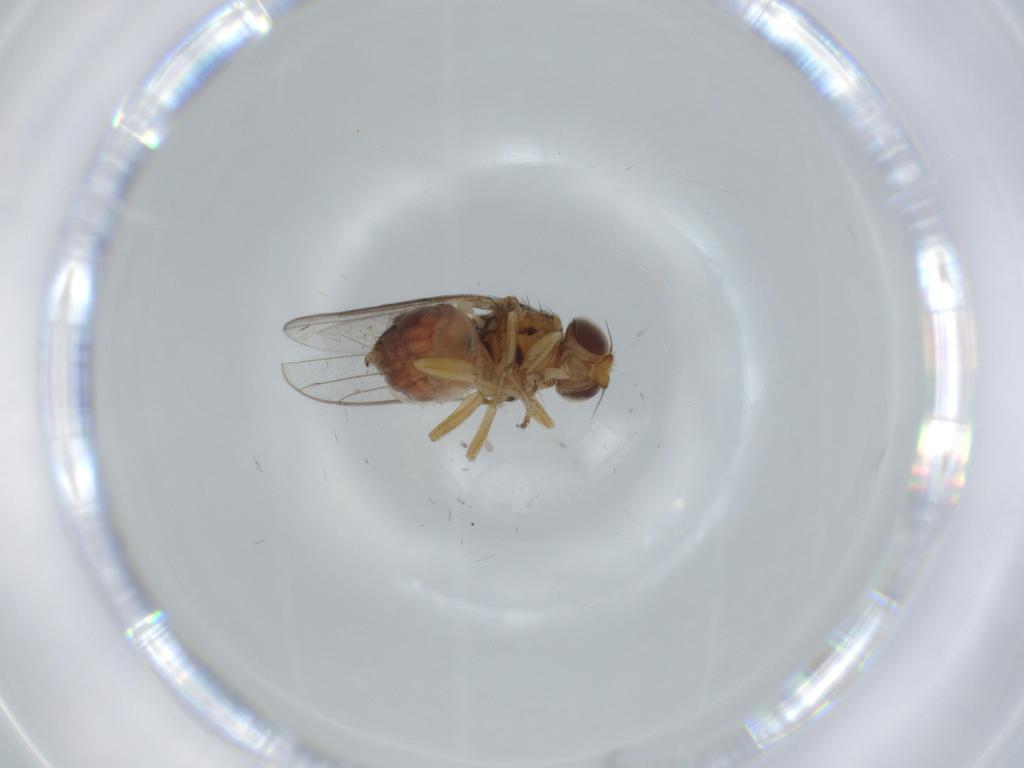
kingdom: Animalia
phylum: Arthropoda
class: Insecta
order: Diptera
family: Chloropidae
